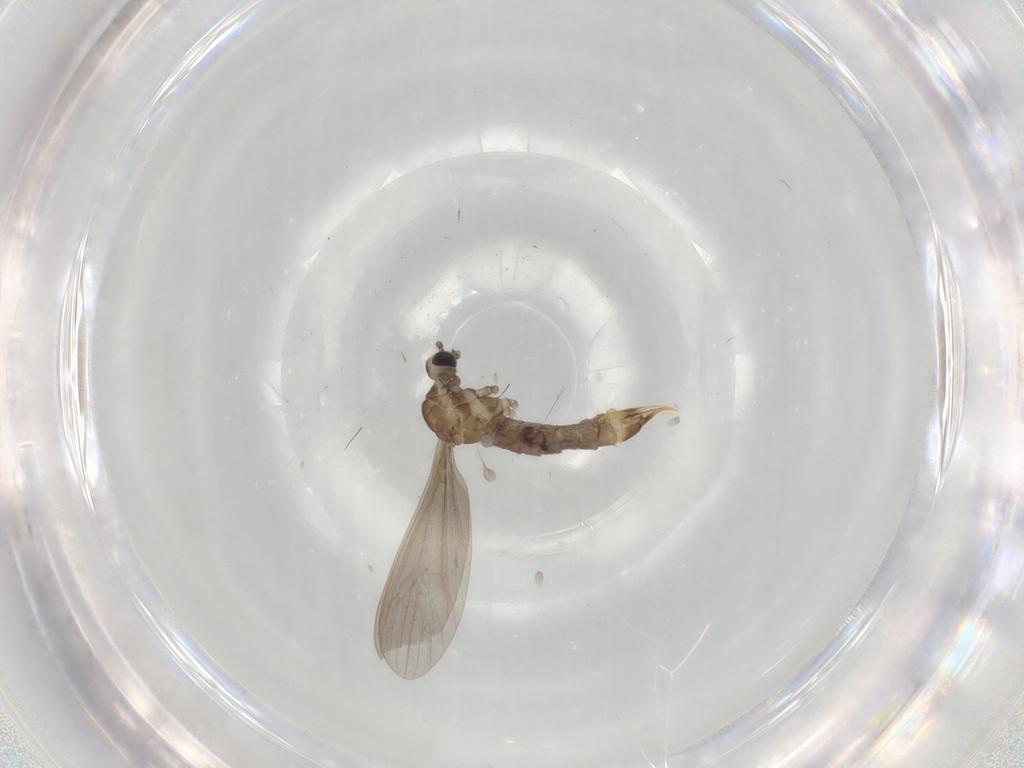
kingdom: Animalia
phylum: Arthropoda
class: Insecta
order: Diptera
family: Limoniidae
